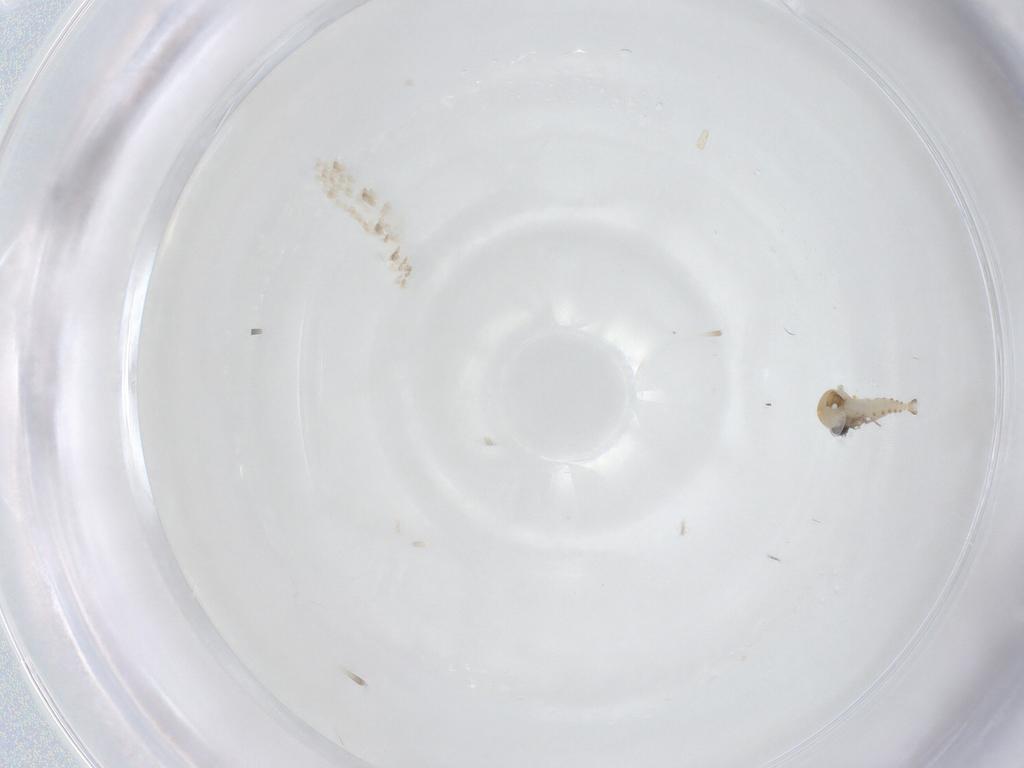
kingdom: Animalia
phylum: Arthropoda
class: Insecta
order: Diptera
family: Ceratopogonidae
